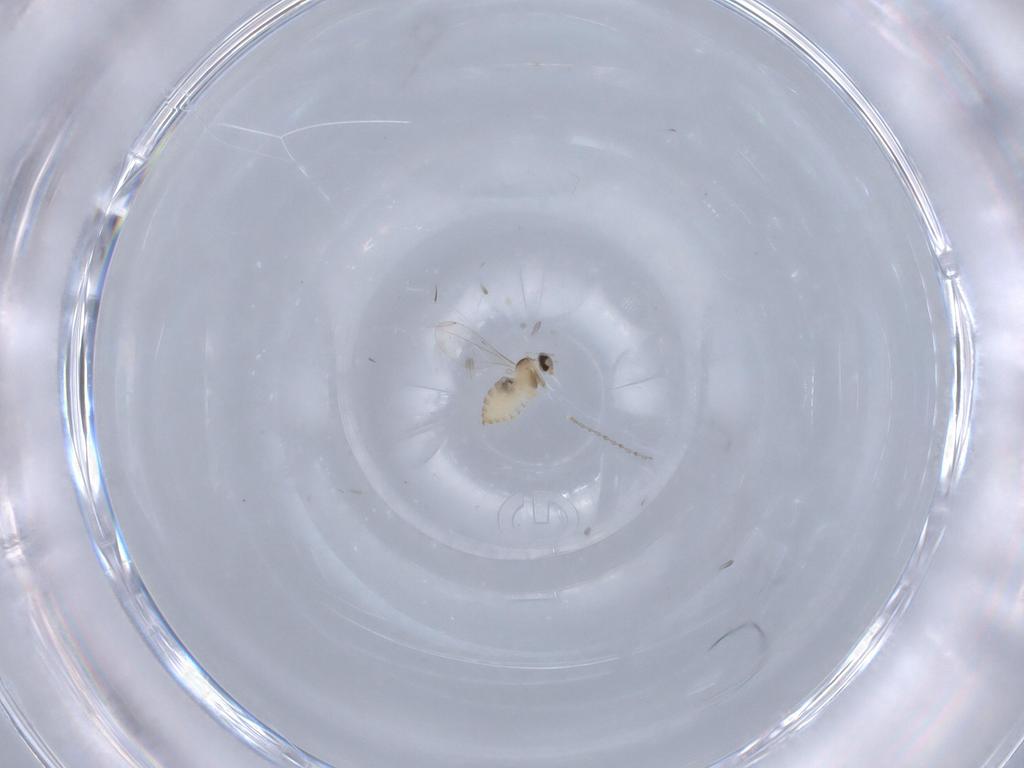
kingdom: Animalia
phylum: Arthropoda
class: Insecta
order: Diptera
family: Cecidomyiidae
